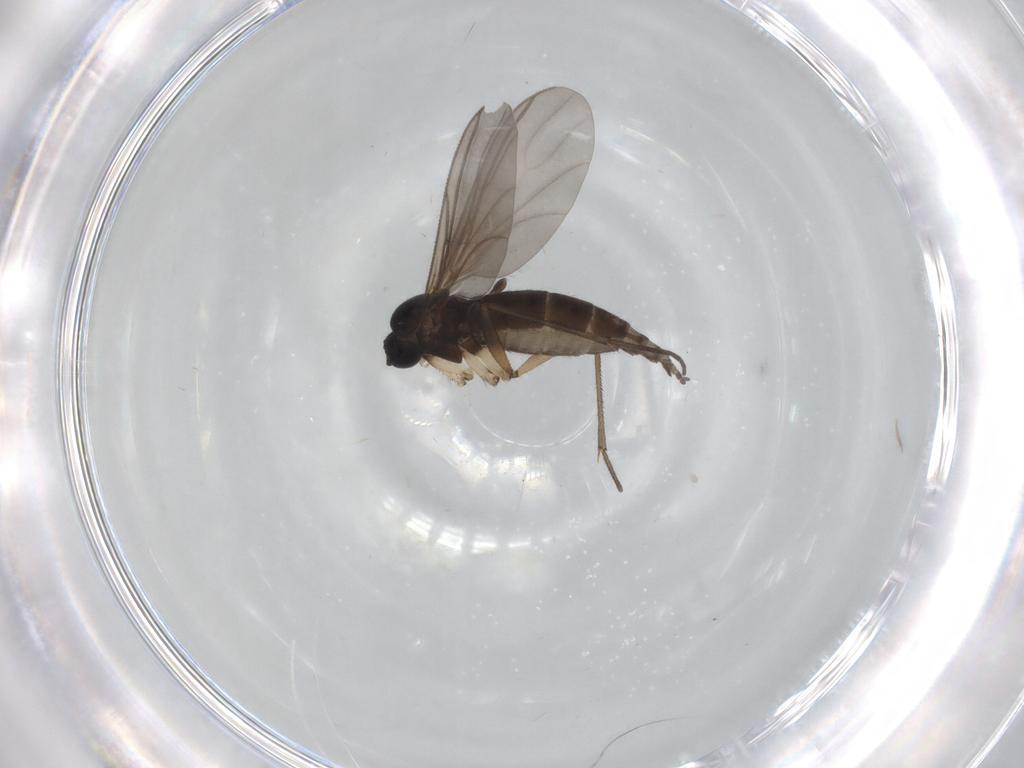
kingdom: Animalia
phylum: Arthropoda
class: Insecta
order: Diptera
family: Sciaridae
